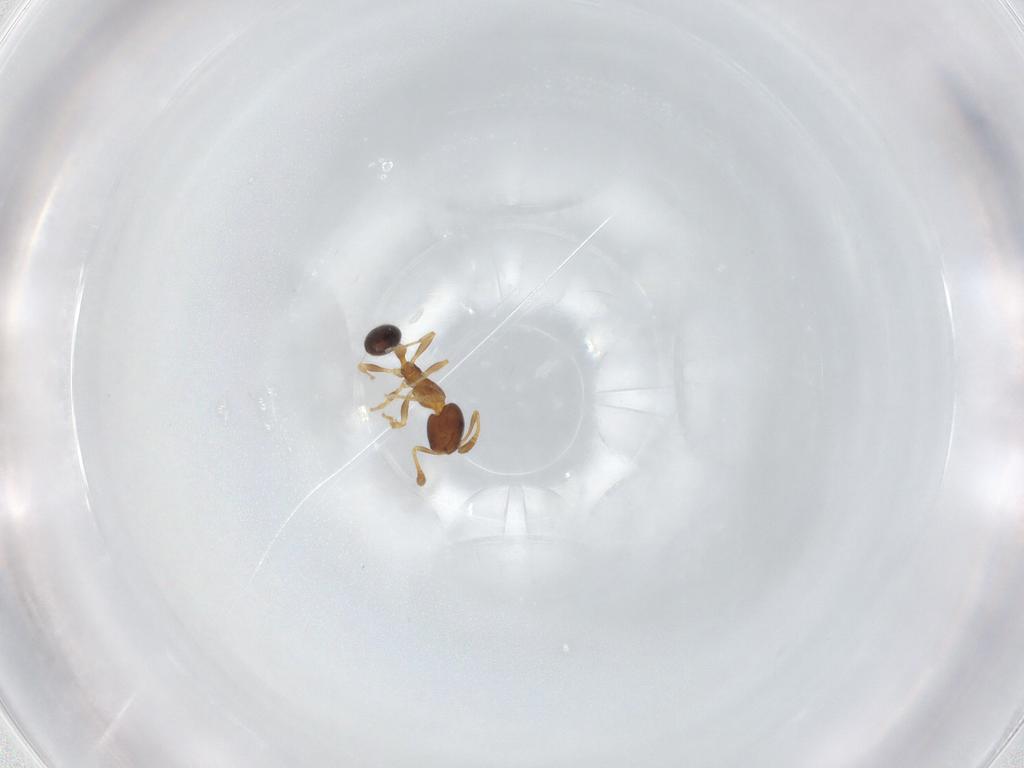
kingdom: Animalia
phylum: Arthropoda
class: Insecta
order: Hymenoptera
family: Formicidae
